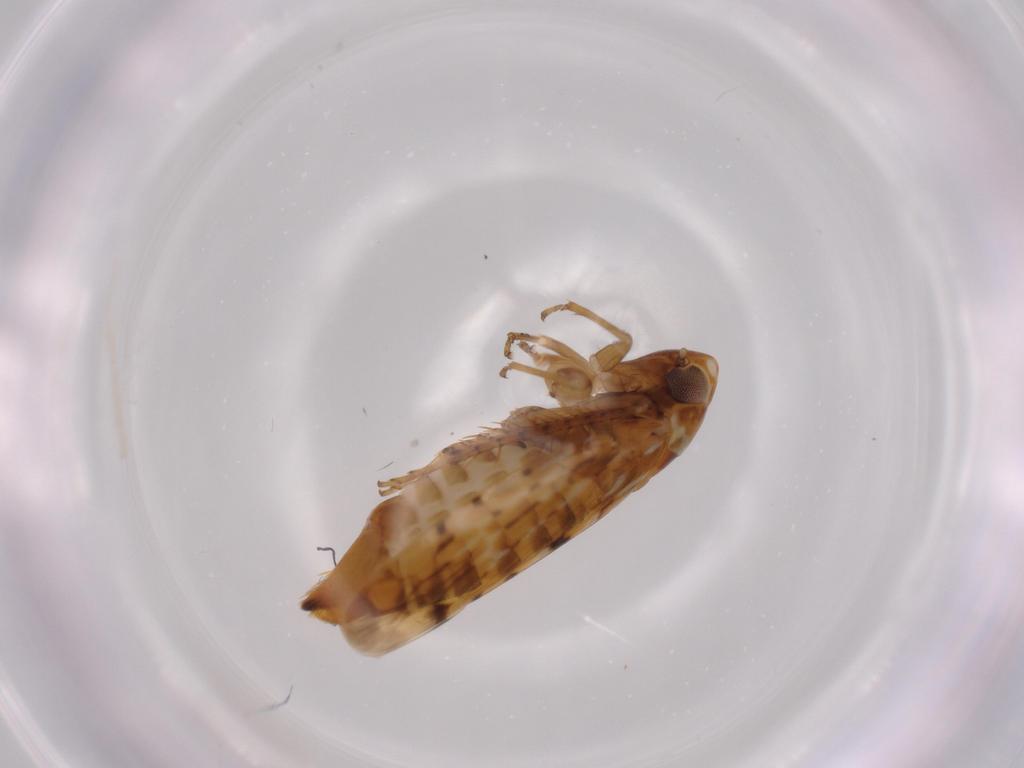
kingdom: Animalia
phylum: Arthropoda
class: Insecta
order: Hemiptera
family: Cicadellidae
